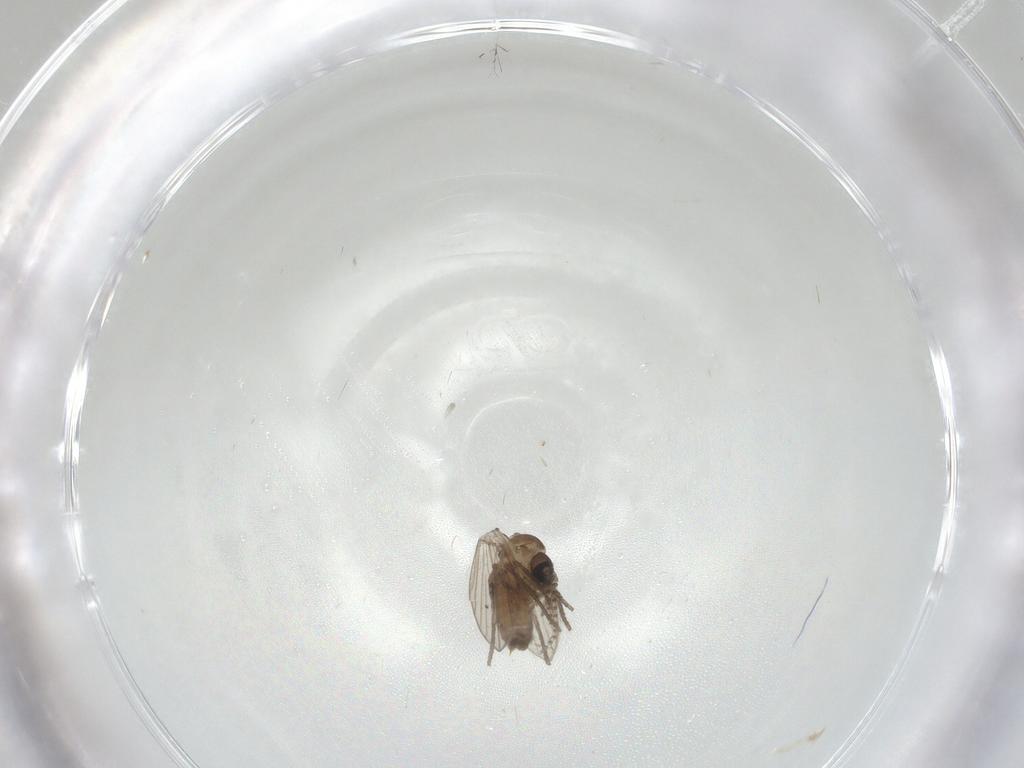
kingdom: Animalia
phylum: Arthropoda
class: Insecta
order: Diptera
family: Psychodidae
